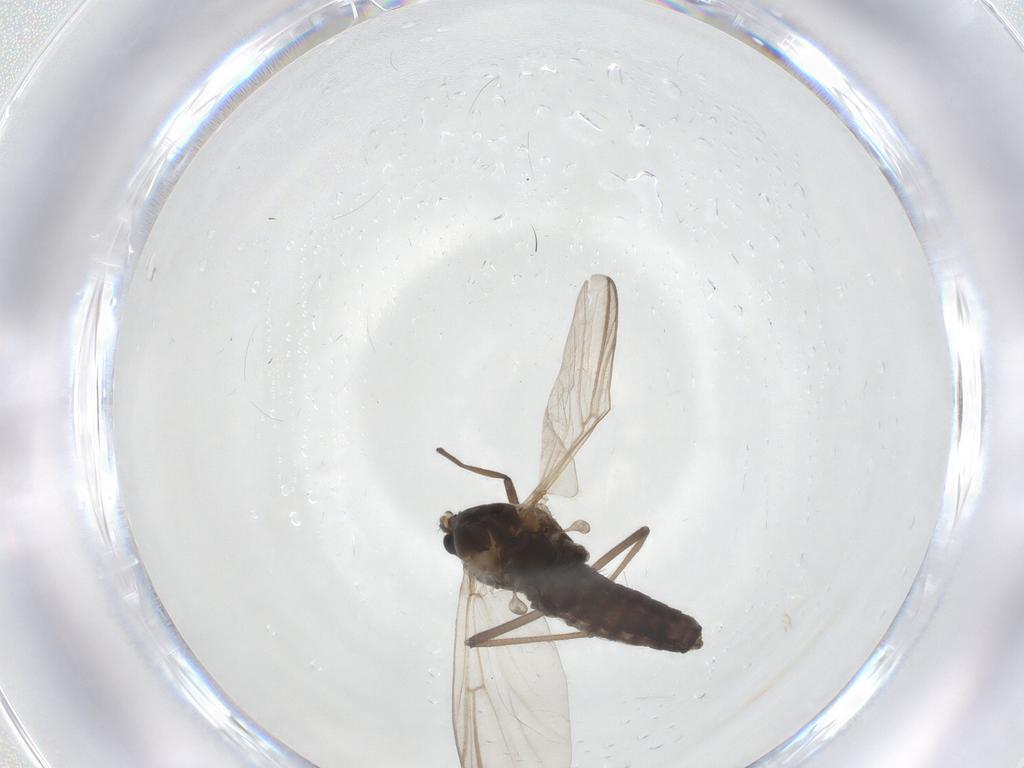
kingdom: Animalia
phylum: Arthropoda
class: Insecta
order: Diptera
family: Chironomidae
